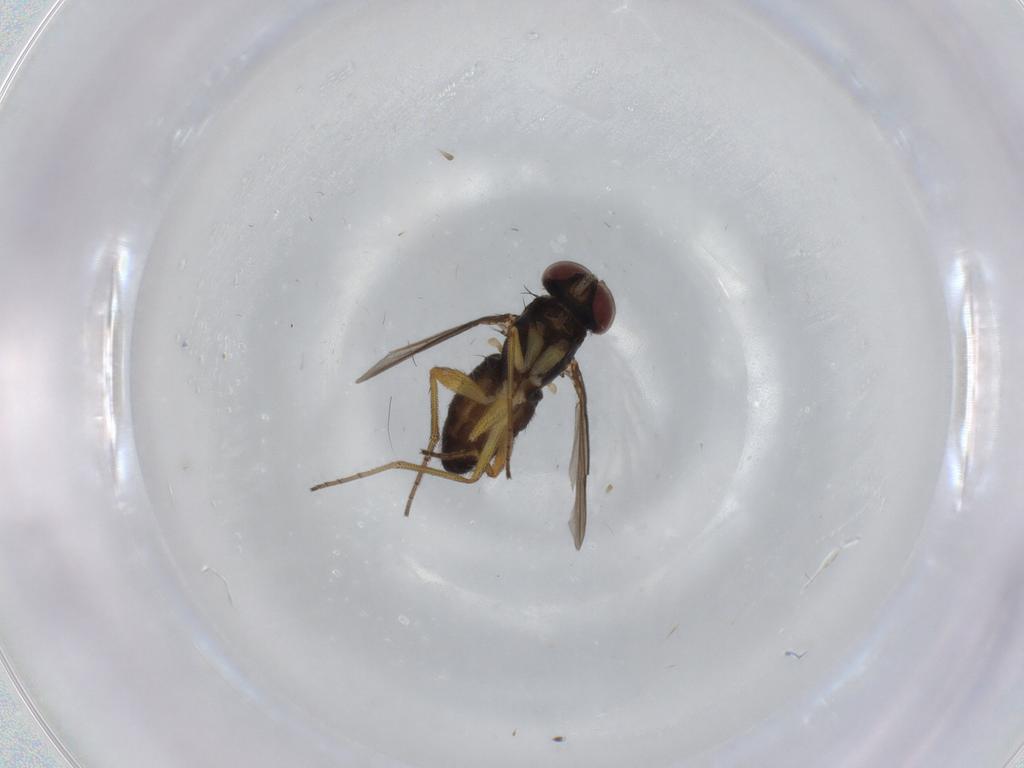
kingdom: Animalia
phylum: Arthropoda
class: Insecta
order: Diptera
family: Dolichopodidae
